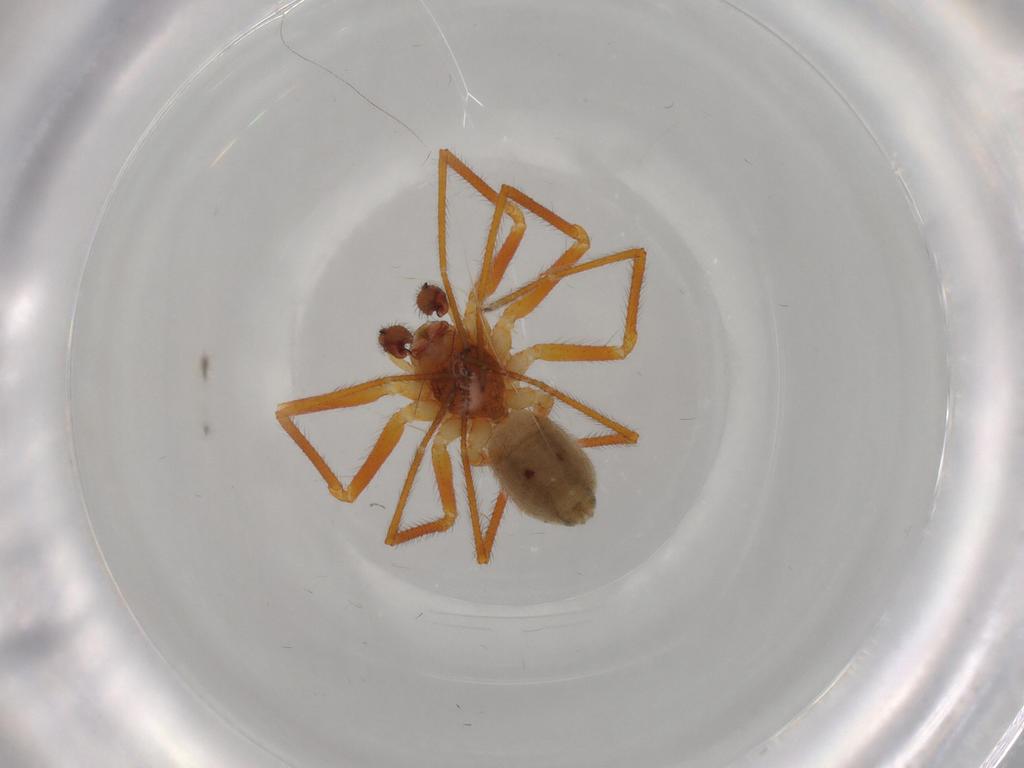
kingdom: Animalia
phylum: Arthropoda
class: Arachnida
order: Araneae
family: Linyphiidae
